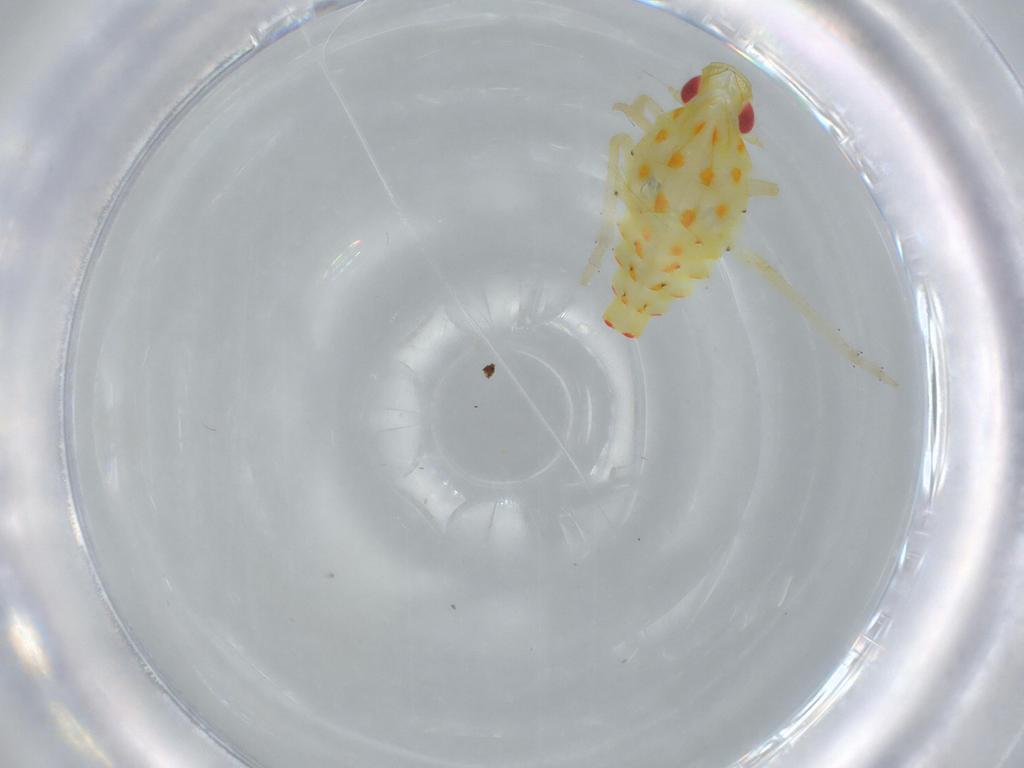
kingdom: Animalia
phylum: Arthropoda
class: Insecta
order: Hemiptera
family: Tropiduchidae
